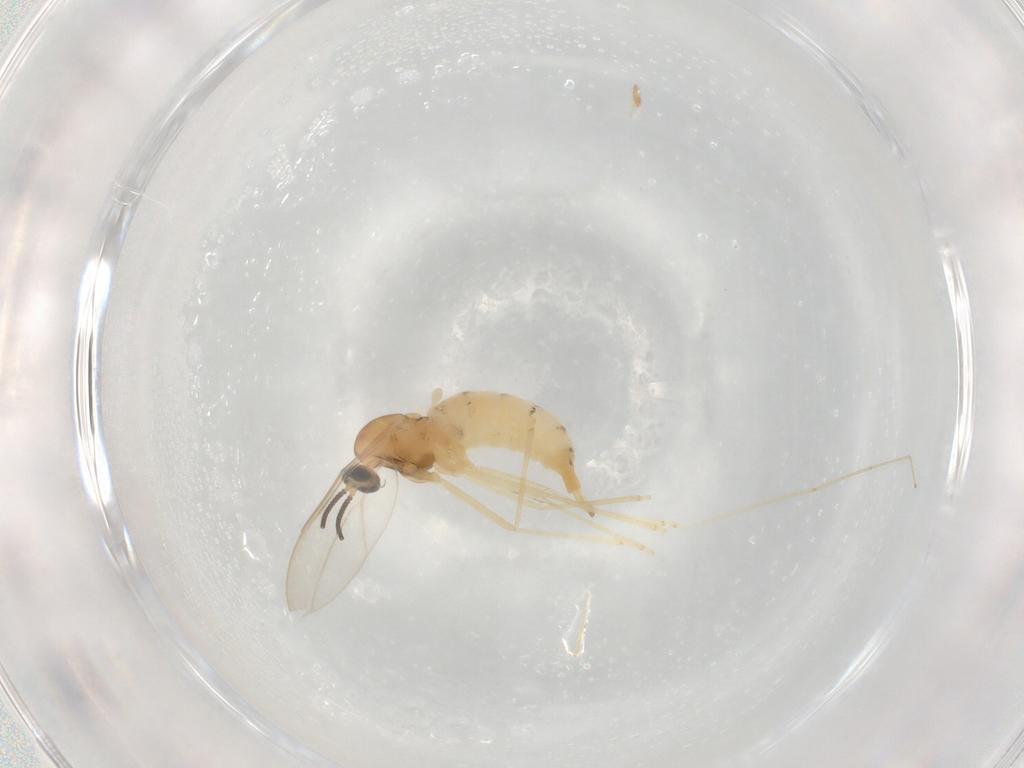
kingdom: Animalia
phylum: Arthropoda
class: Insecta
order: Diptera
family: Cecidomyiidae
